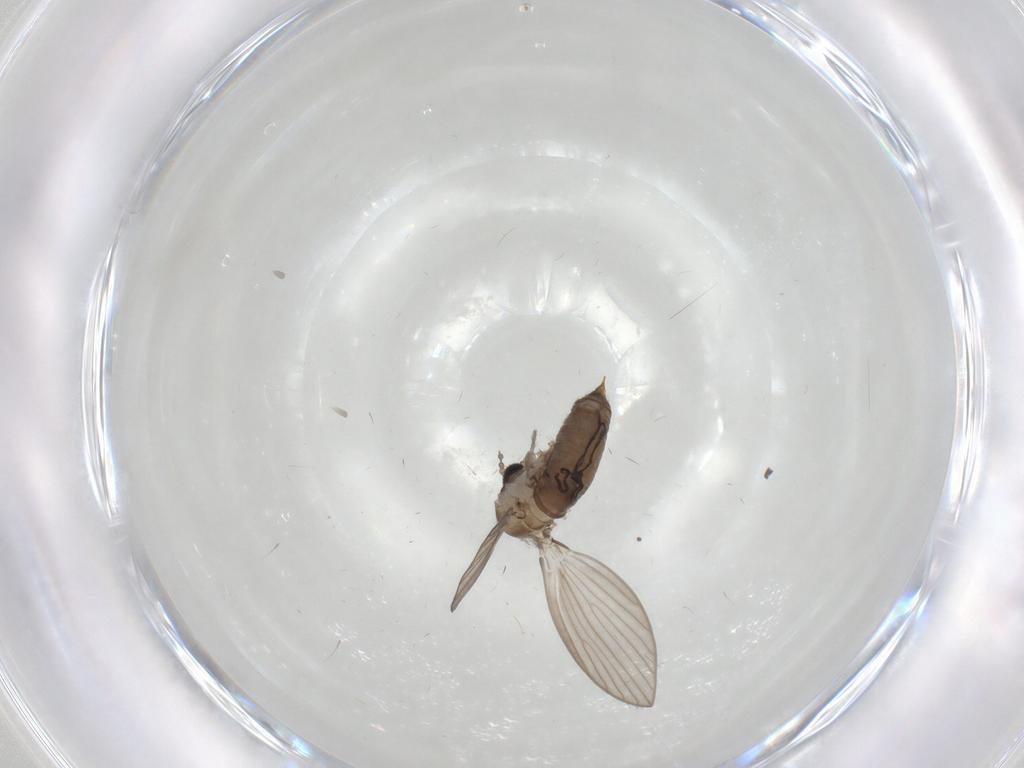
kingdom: Animalia
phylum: Arthropoda
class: Insecta
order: Diptera
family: Psychodidae
